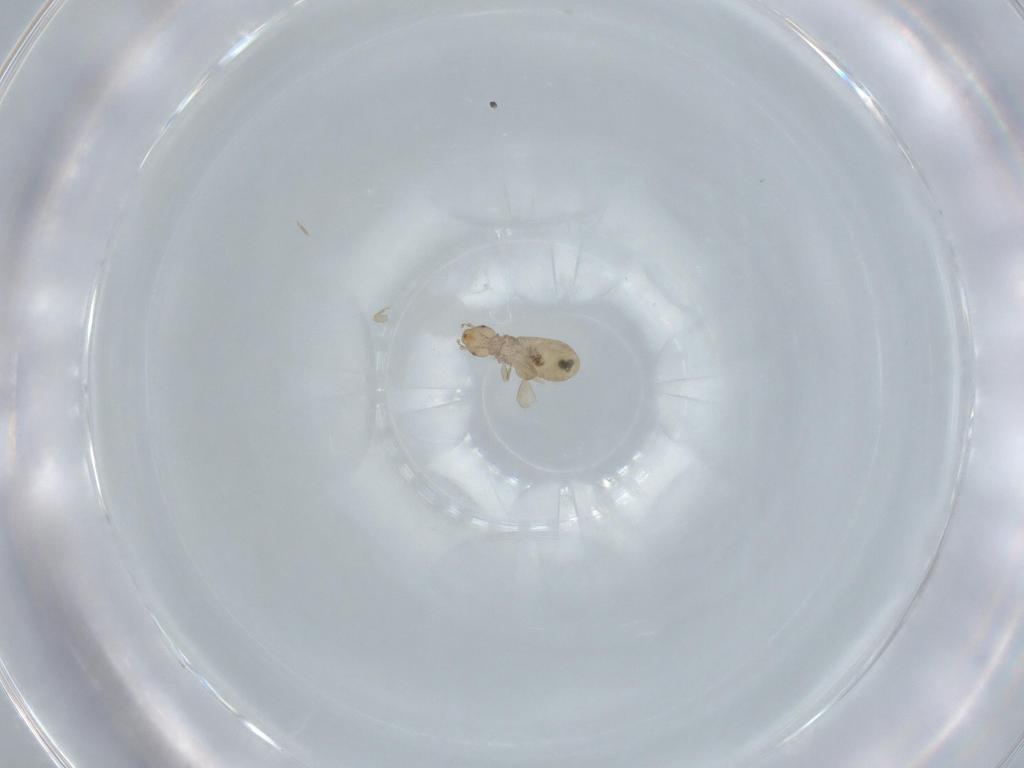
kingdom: Animalia
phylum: Arthropoda
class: Insecta
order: Psocodea
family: Liposcelididae
